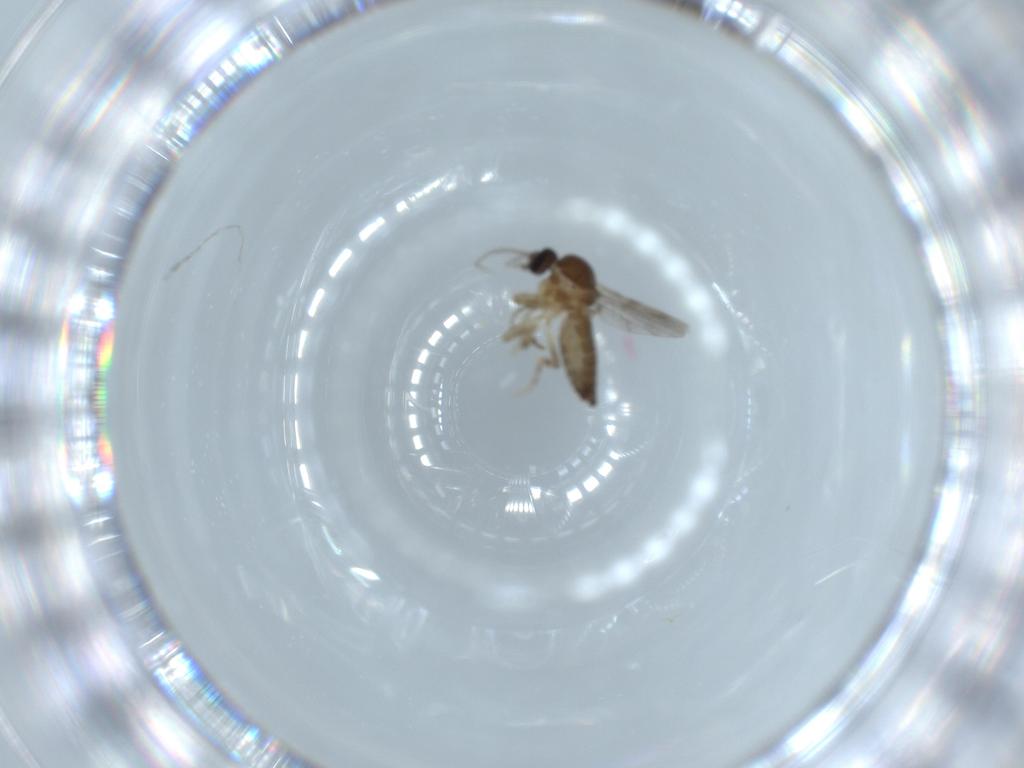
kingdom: Animalia
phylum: Arthropoda
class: Insecta
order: Diptera
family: Ceratopogonidae
